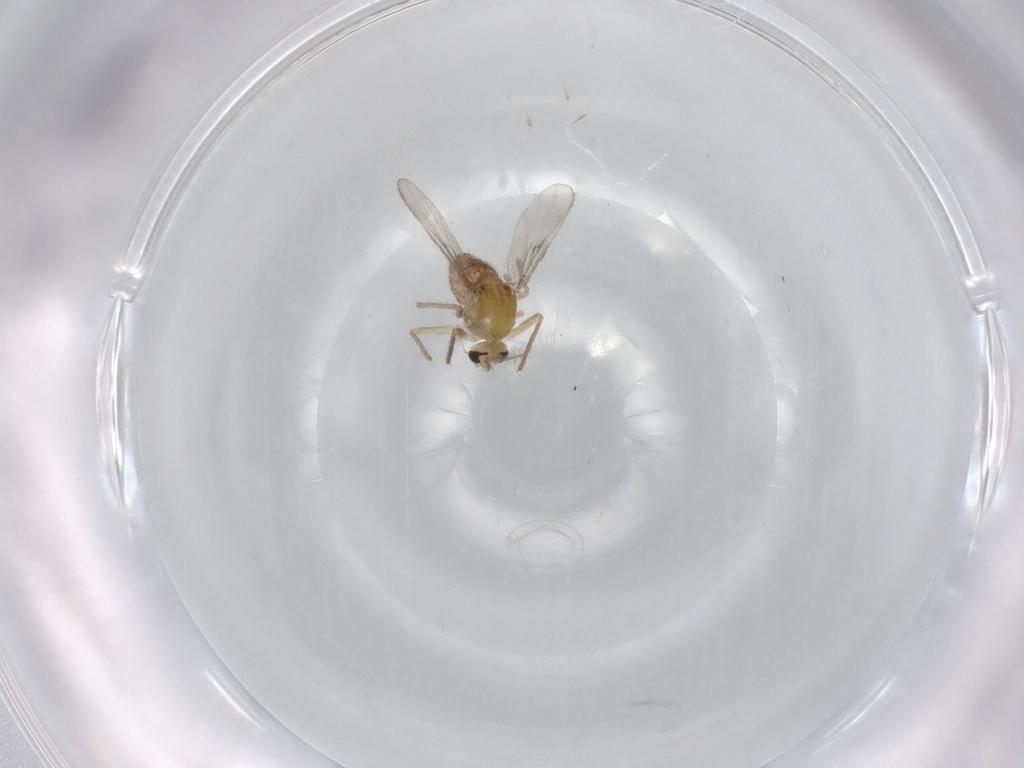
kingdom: Animalia
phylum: Arthropoda
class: Insecta
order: Diptera
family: Chironomidae
